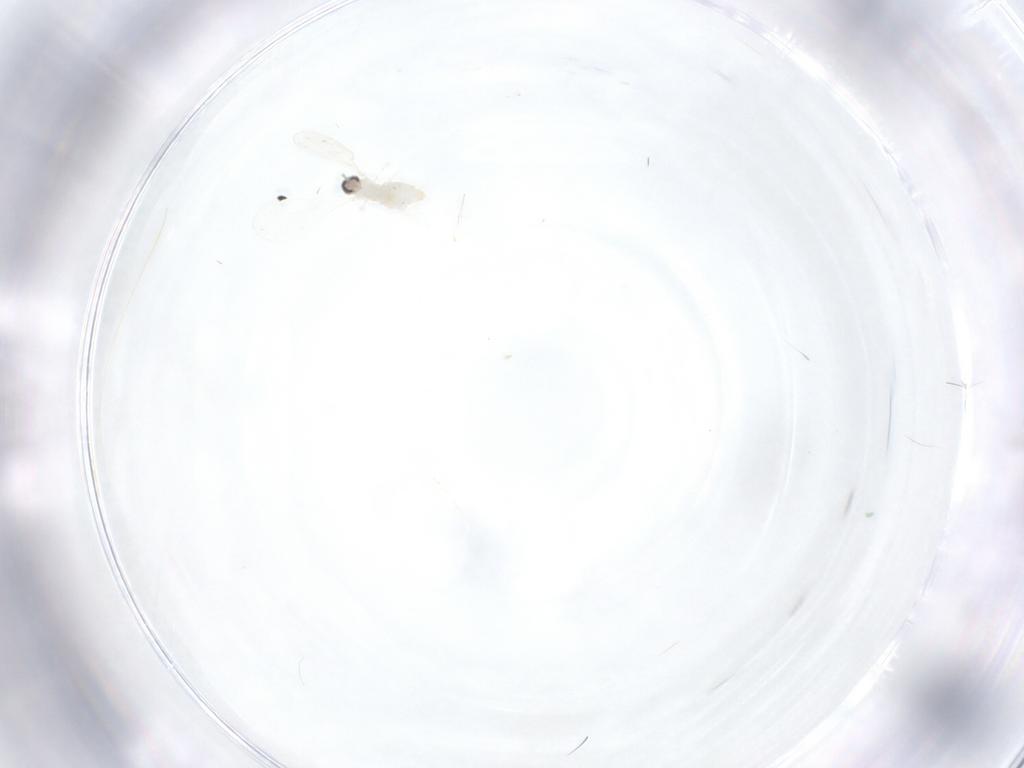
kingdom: Animalia
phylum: Arthropoda
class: Insecta
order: Diptera
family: Cecidomyiidae
